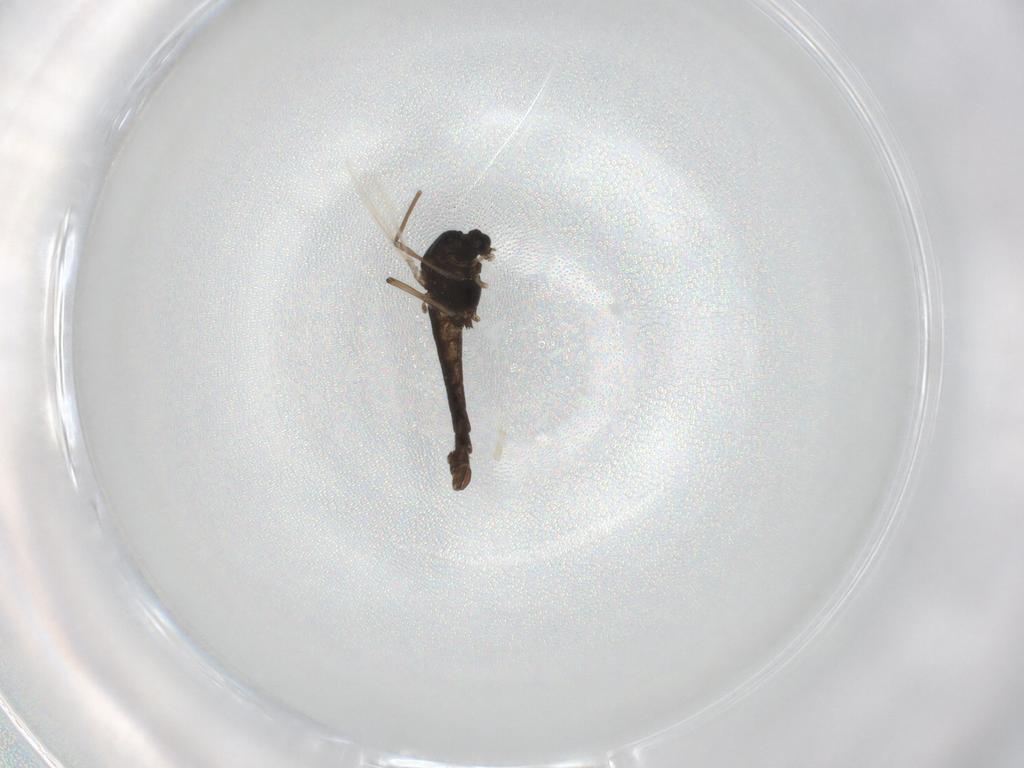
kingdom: Animalia
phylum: Arthropoda
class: Insecta
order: Diptera
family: Chironomidae
